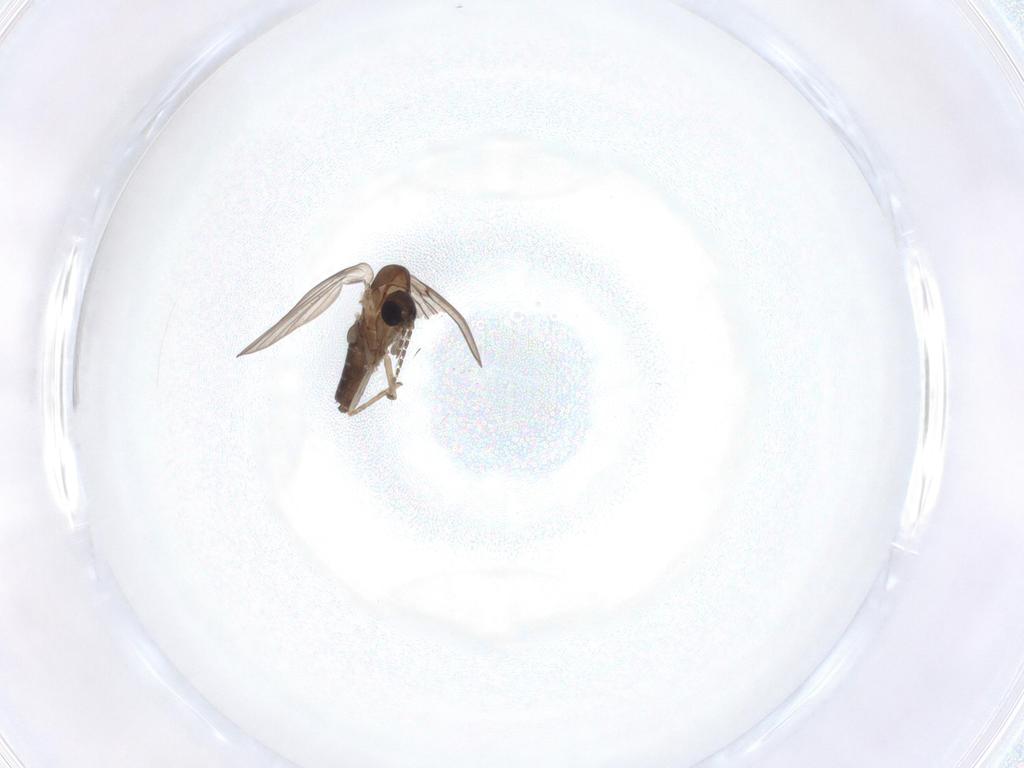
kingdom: Animalia
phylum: Arthropoda
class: Insecta
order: Diptera
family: Psychodidae
